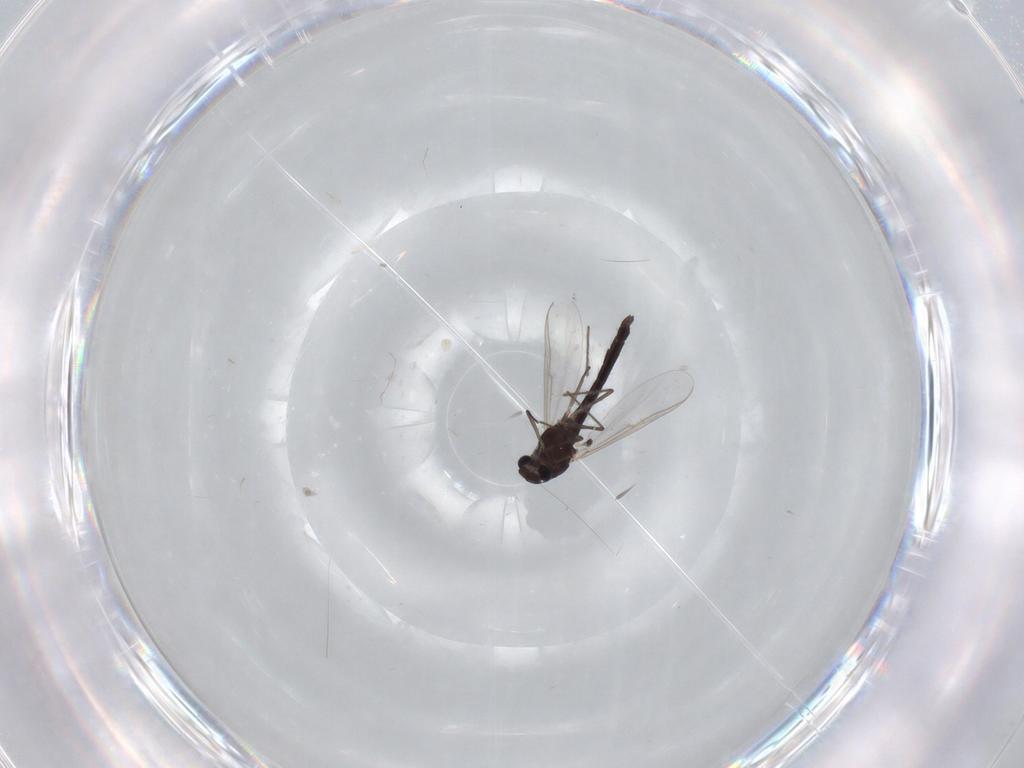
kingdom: Animalia
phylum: Arthropoda
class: Insecta
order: Diptera
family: Chironomidae
